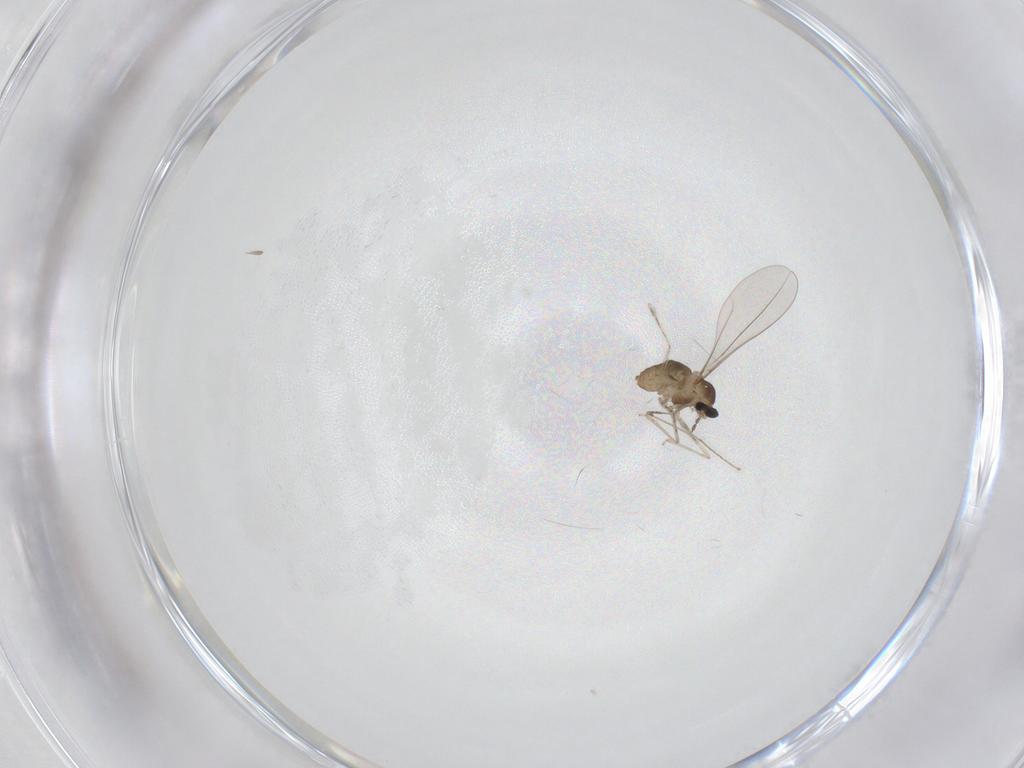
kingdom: Animalia
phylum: Arthropoda
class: Insecta
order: Diptera
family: Cecidomyiidae
